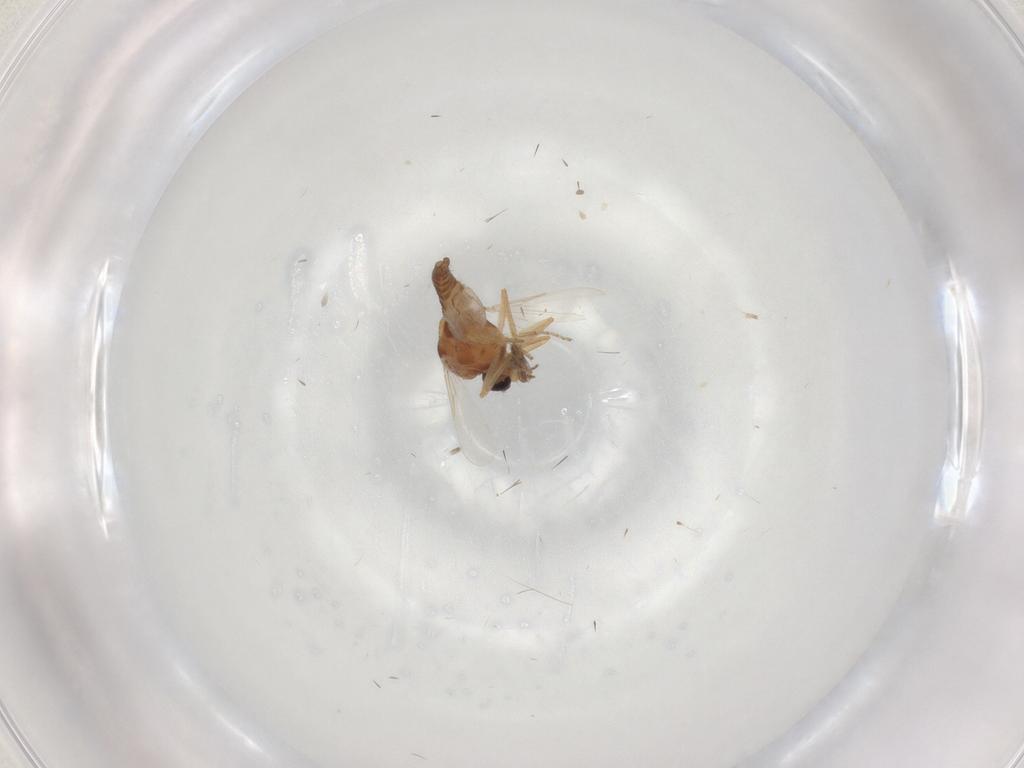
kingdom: Animalia
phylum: Arthropoda
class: Insecta
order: Diptera
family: Ceratopogonidae
